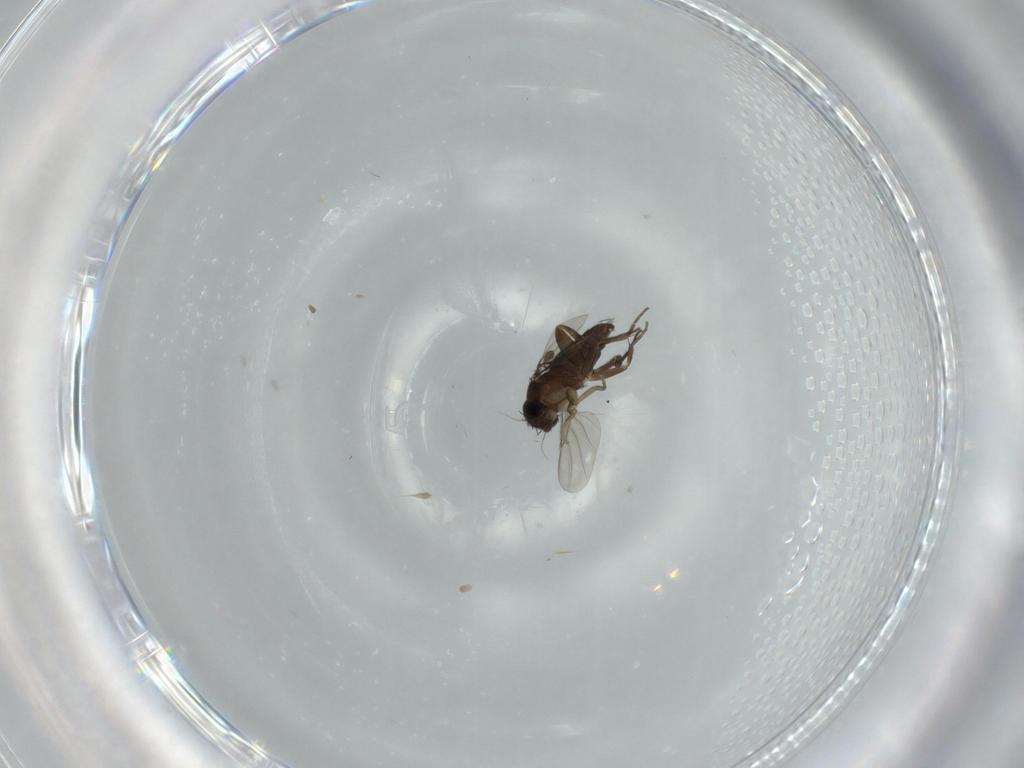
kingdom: Animalia
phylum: Arthropoda
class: Insecta
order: Diptera
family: Phoridae
